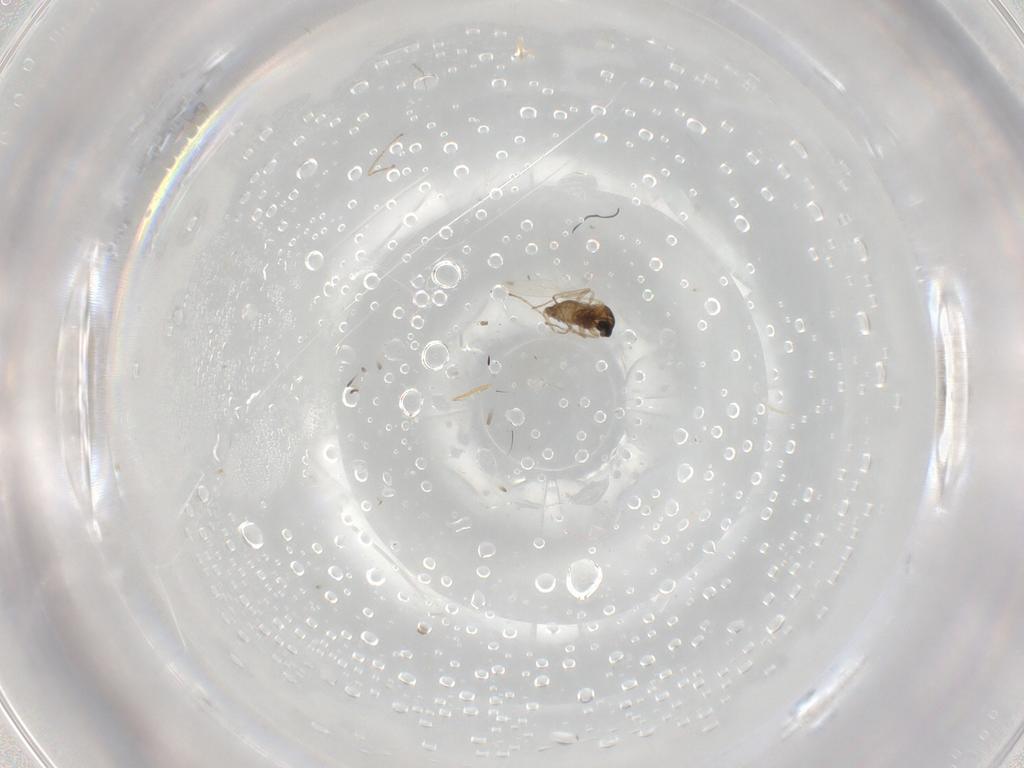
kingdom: Animalia
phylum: Arthropoda
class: Insecta
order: Diptera
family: Cecidomyiidae
